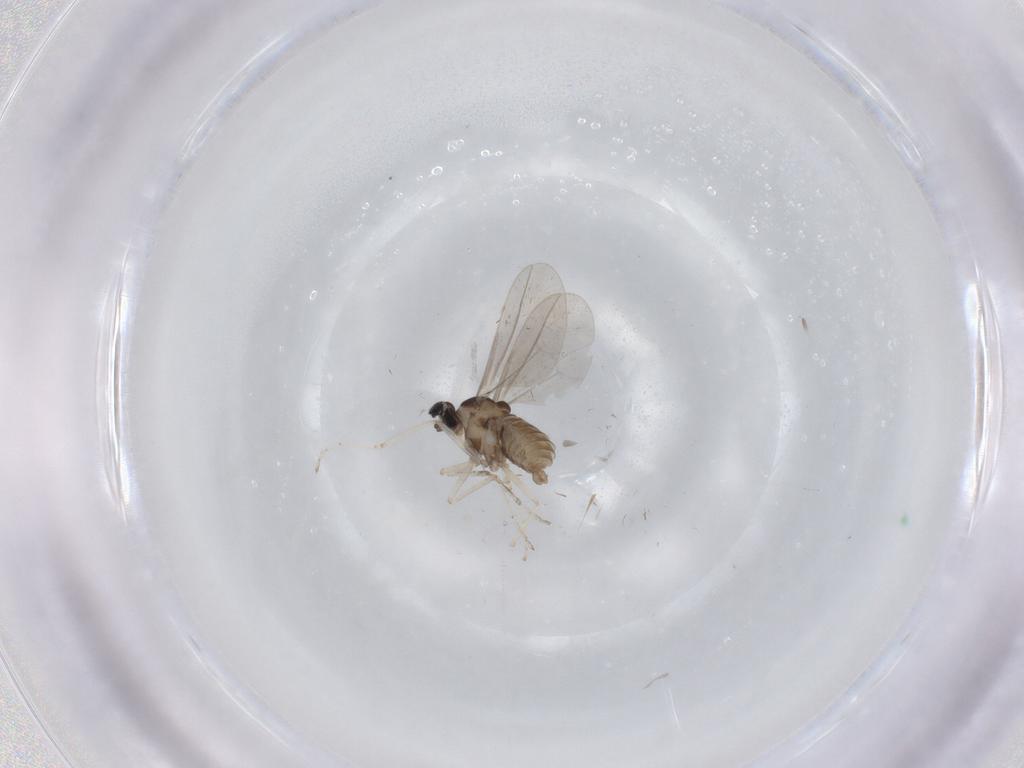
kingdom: Animalia
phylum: Arthropoda
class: Insecta
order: Diptera
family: Cecidomyiidae
